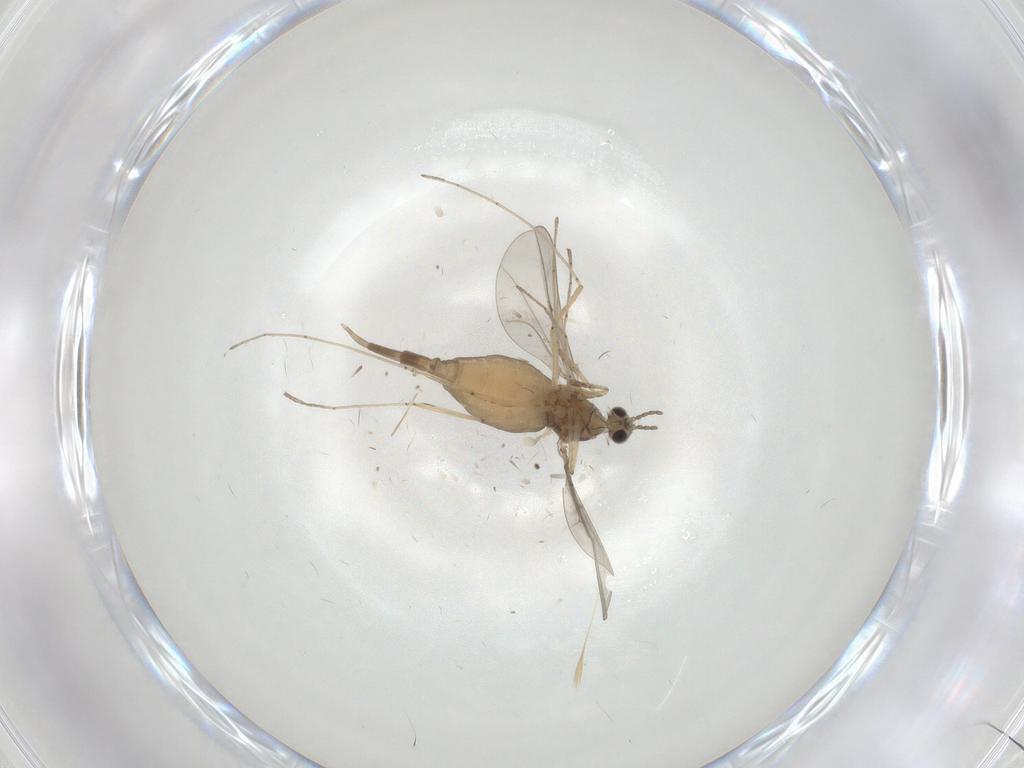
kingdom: Animalia
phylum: Arthropoda
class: Insecta
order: Diptera
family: Cecidomyiidae
